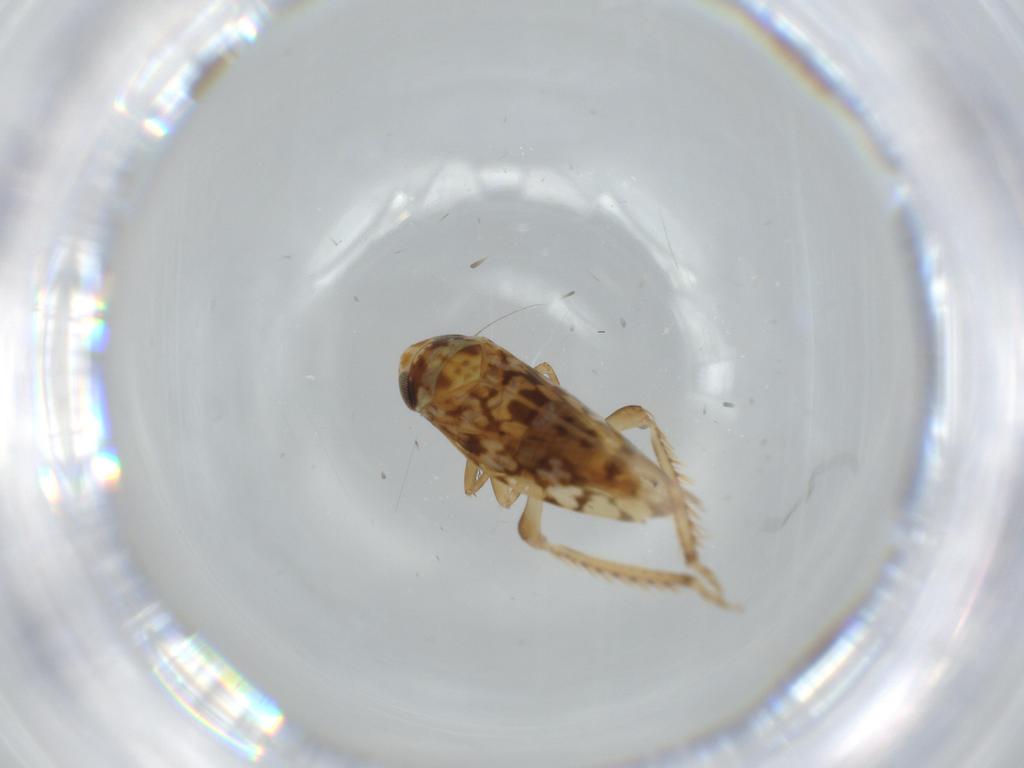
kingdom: Animalia
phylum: Arthropoda
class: Insecta
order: Hemiptera
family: Cicadellidae
